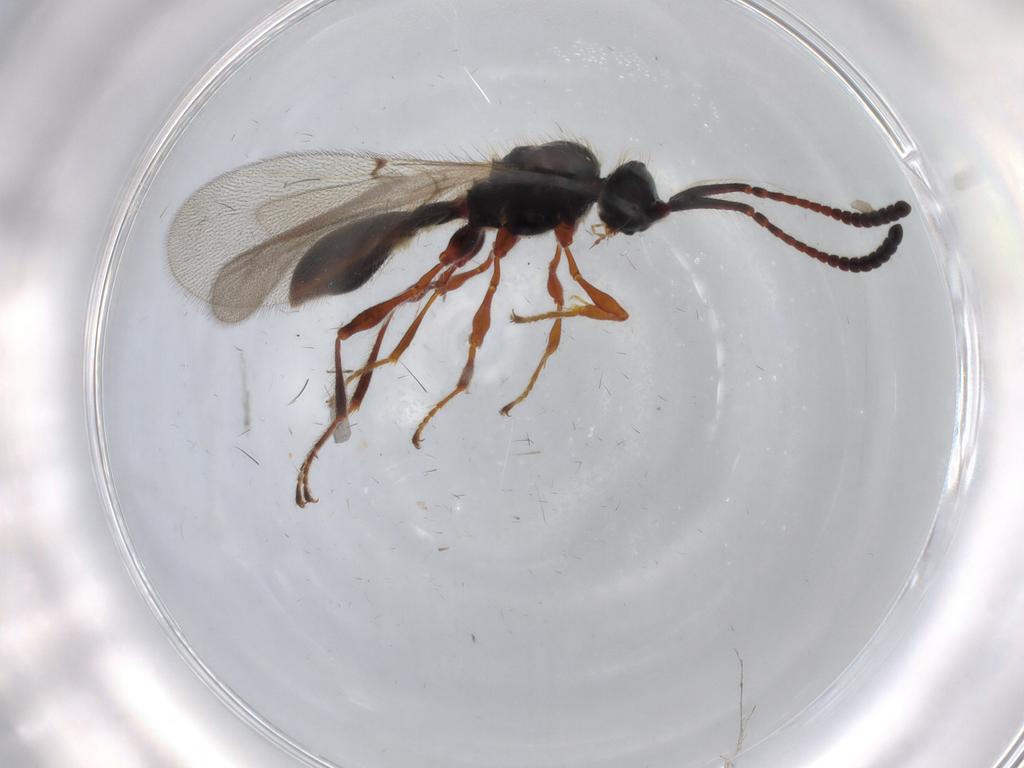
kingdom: Animalia
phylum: Arthropoda
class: Insecta
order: Hymenoptera
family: Diapriidae
